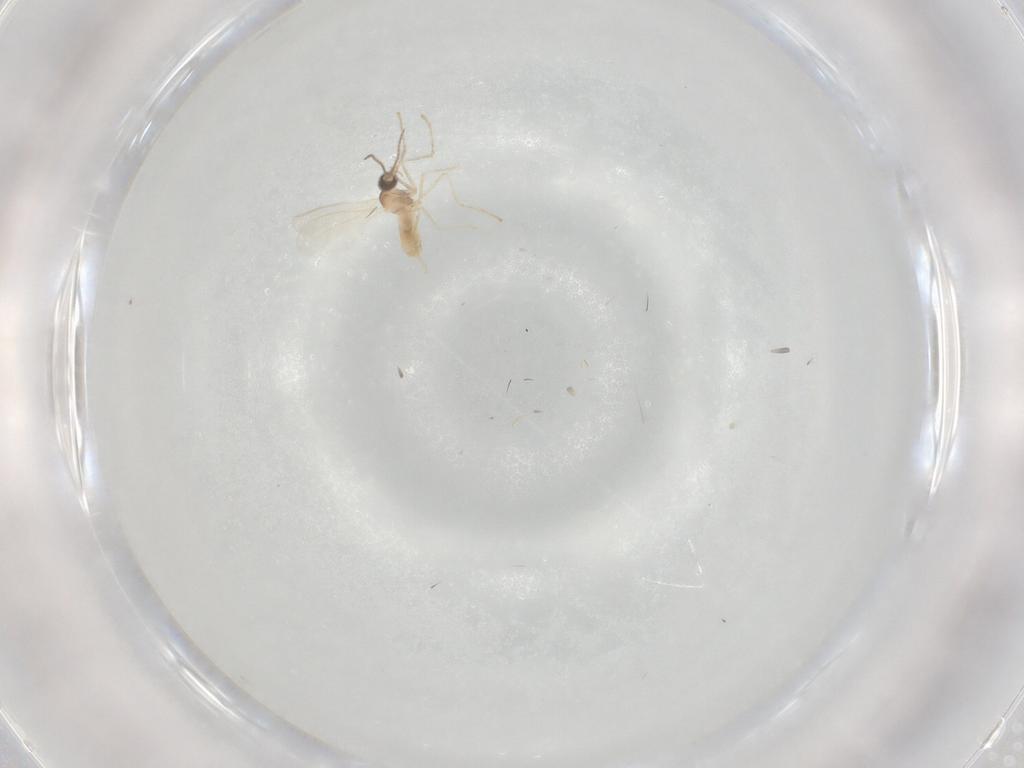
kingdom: Animalia
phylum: Arthropoda
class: Insecta
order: Diptera
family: Cecidomyiidae
